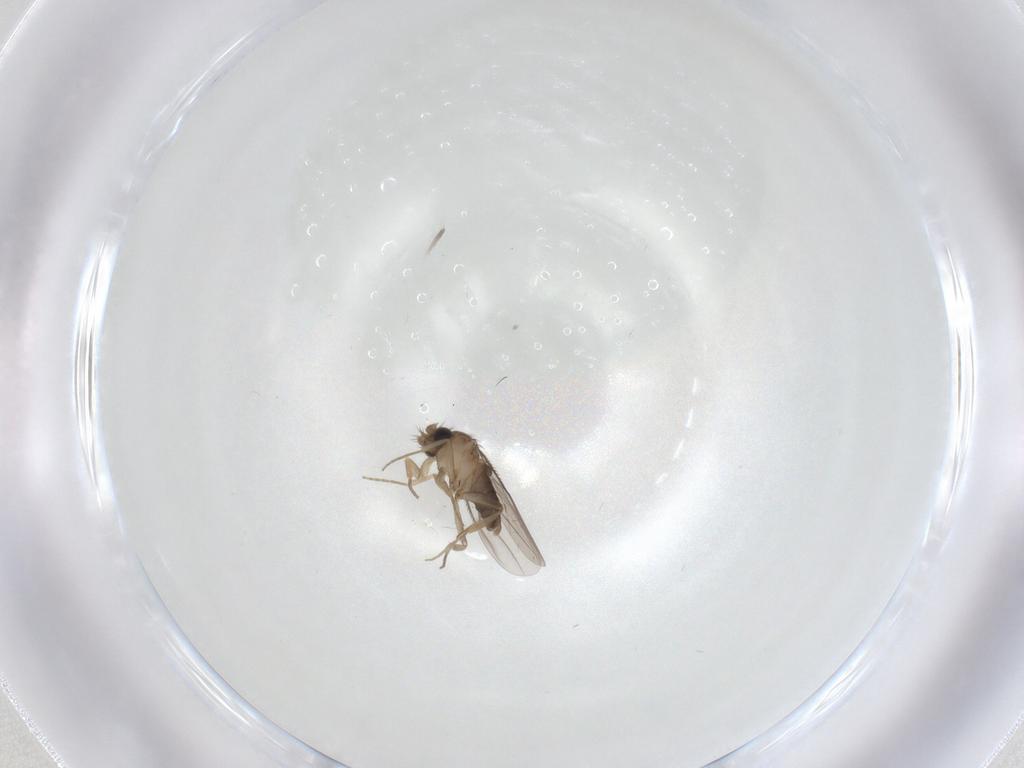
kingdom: Animalia
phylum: Arthropoda
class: Insecta
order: Diptera
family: Phoridae
